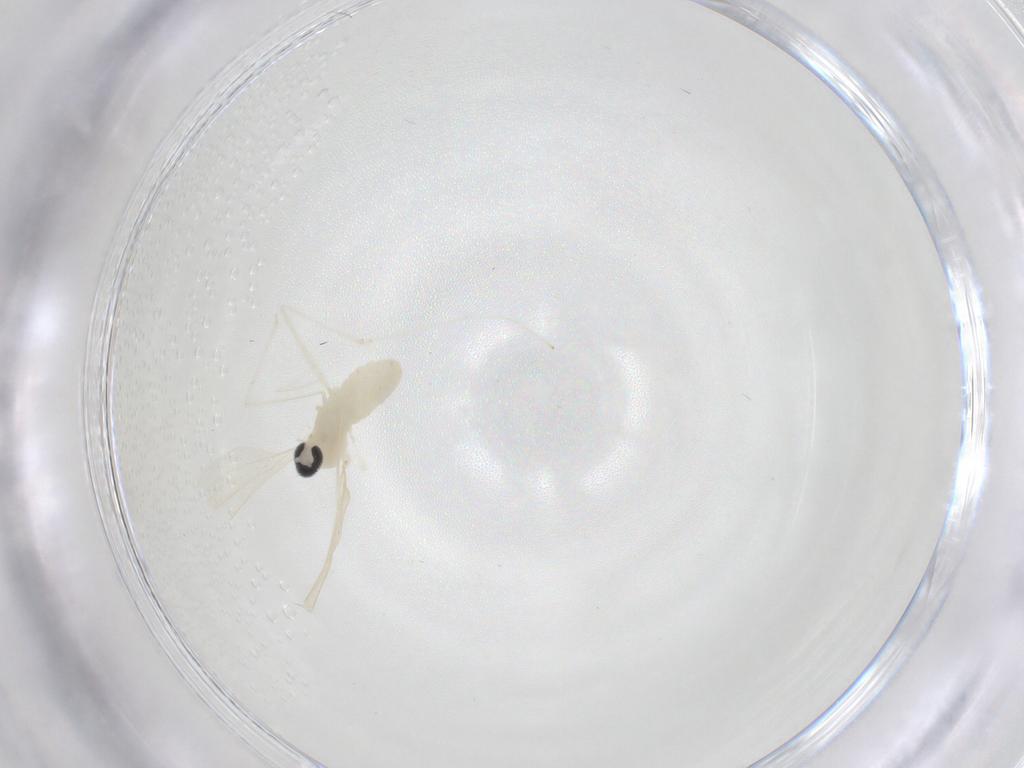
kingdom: Animalia
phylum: Arthropoda
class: Insecta
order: Diptera
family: Cecidomyiidae
